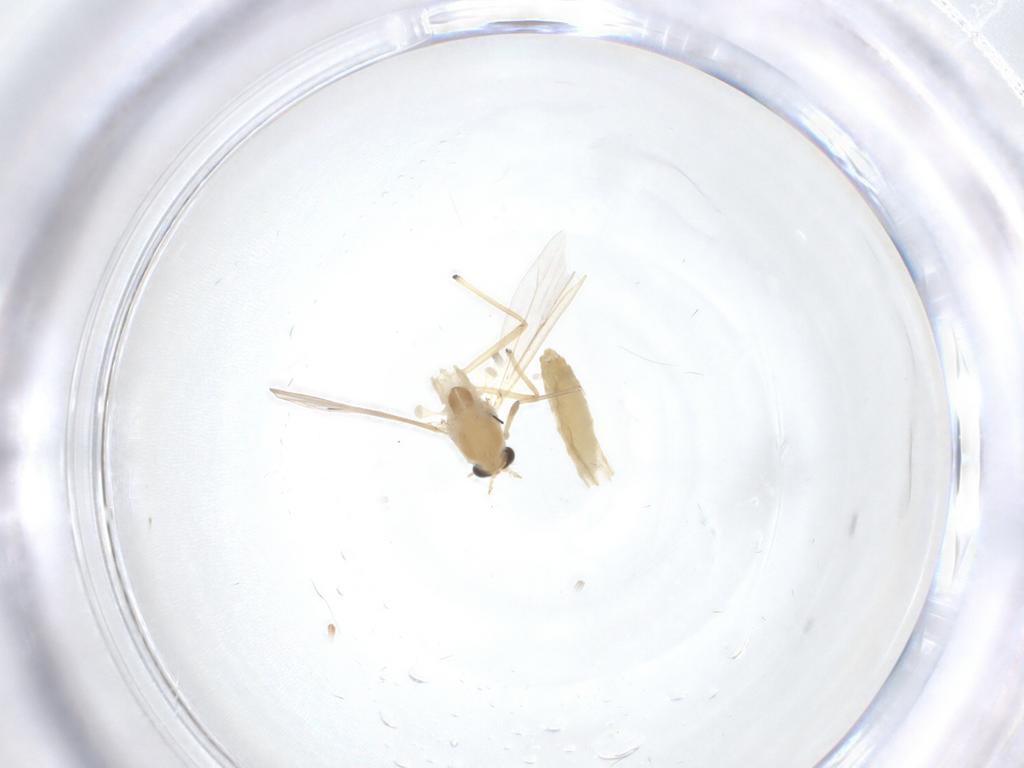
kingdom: Animalia
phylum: Arthropoda
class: Insecta
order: Diptera
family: Chironomidae
